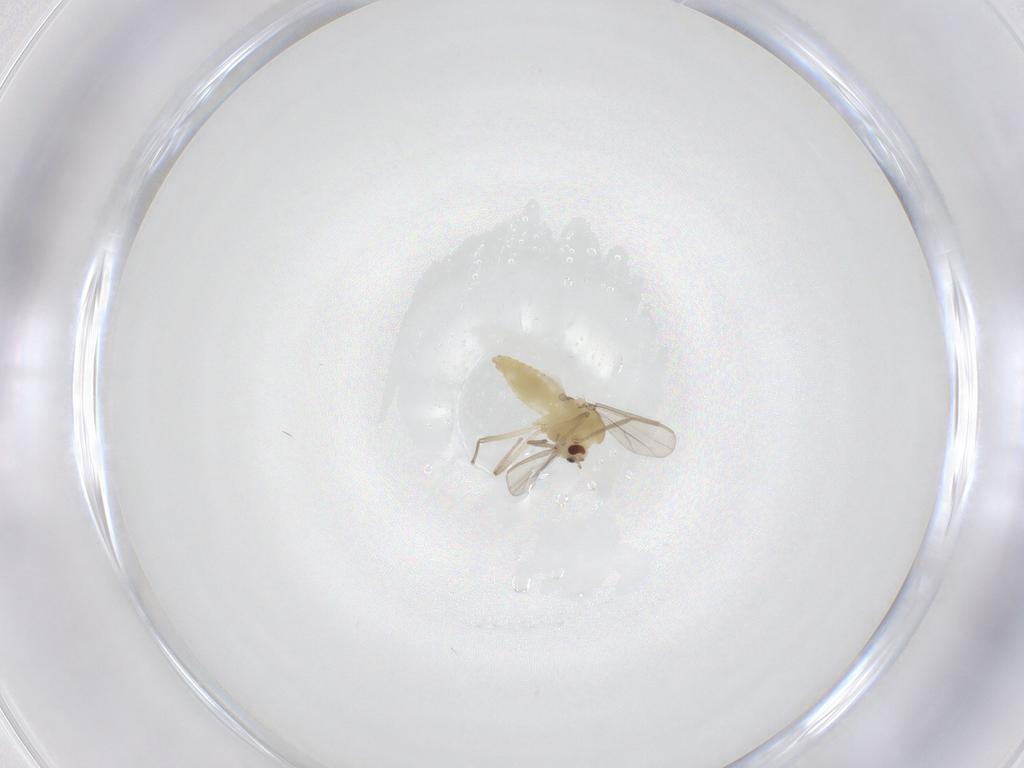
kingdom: Animalia
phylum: Arthropoda
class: Insecta
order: Diptera
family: Chironomidae
